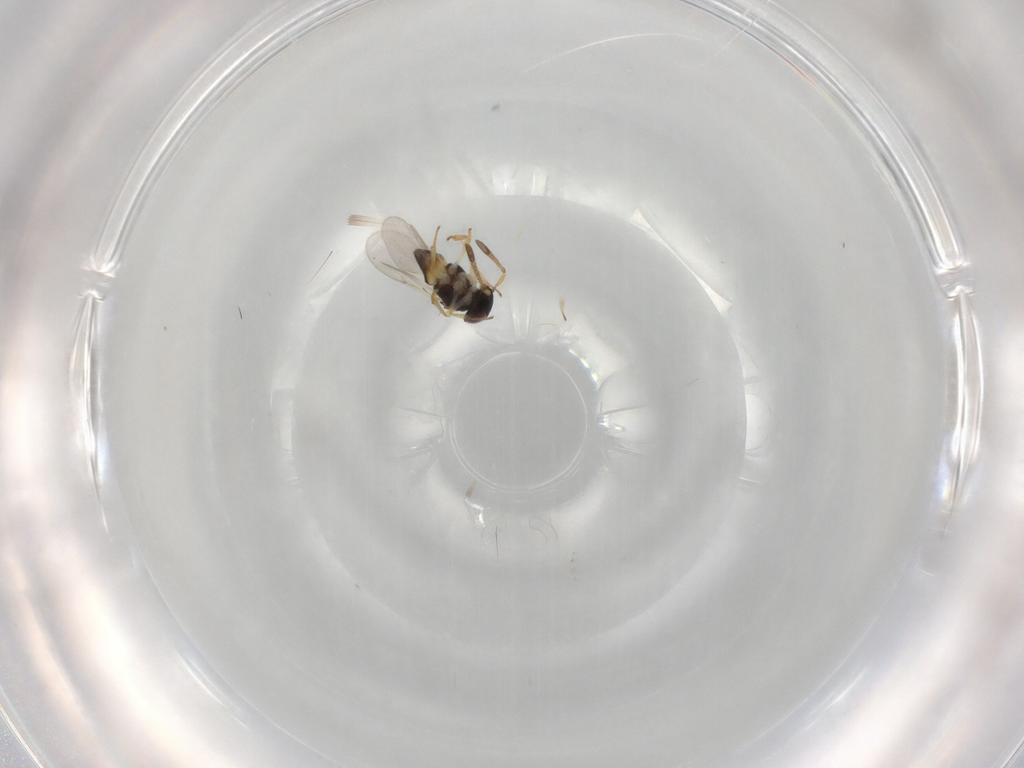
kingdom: Animalia
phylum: Arthropoda
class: Insecta
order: Hymenoptera
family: Encyrtidae
